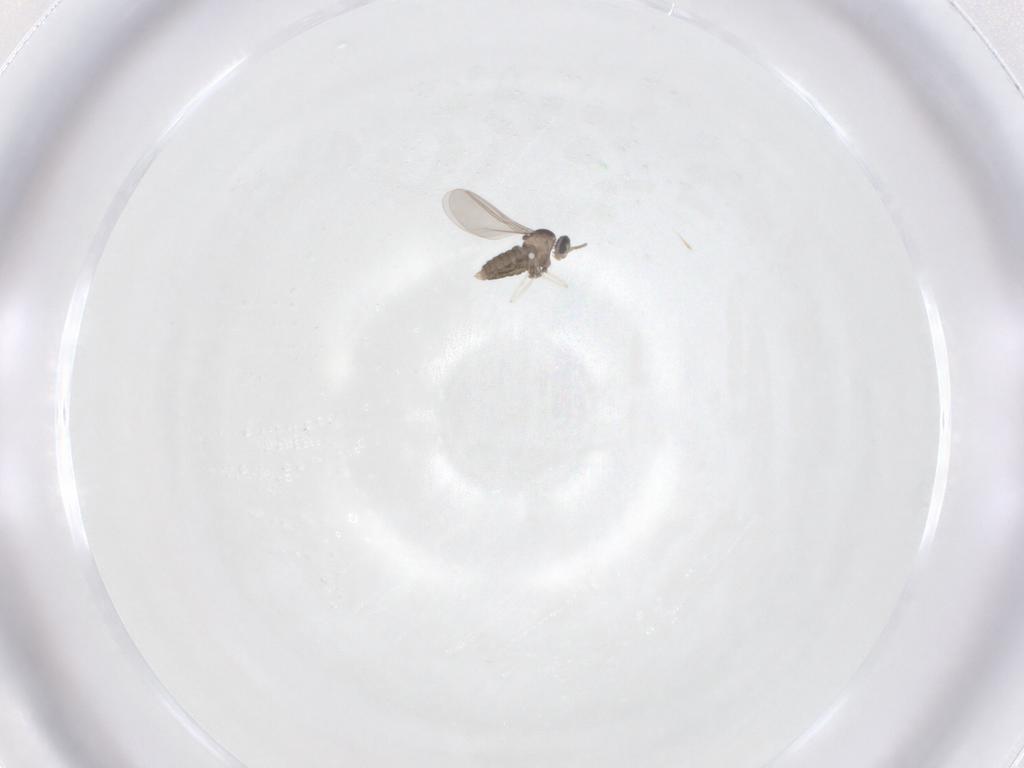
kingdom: Animalia
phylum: Arthropoda
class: Insecta
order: Diptera
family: Cecidomyiidae
